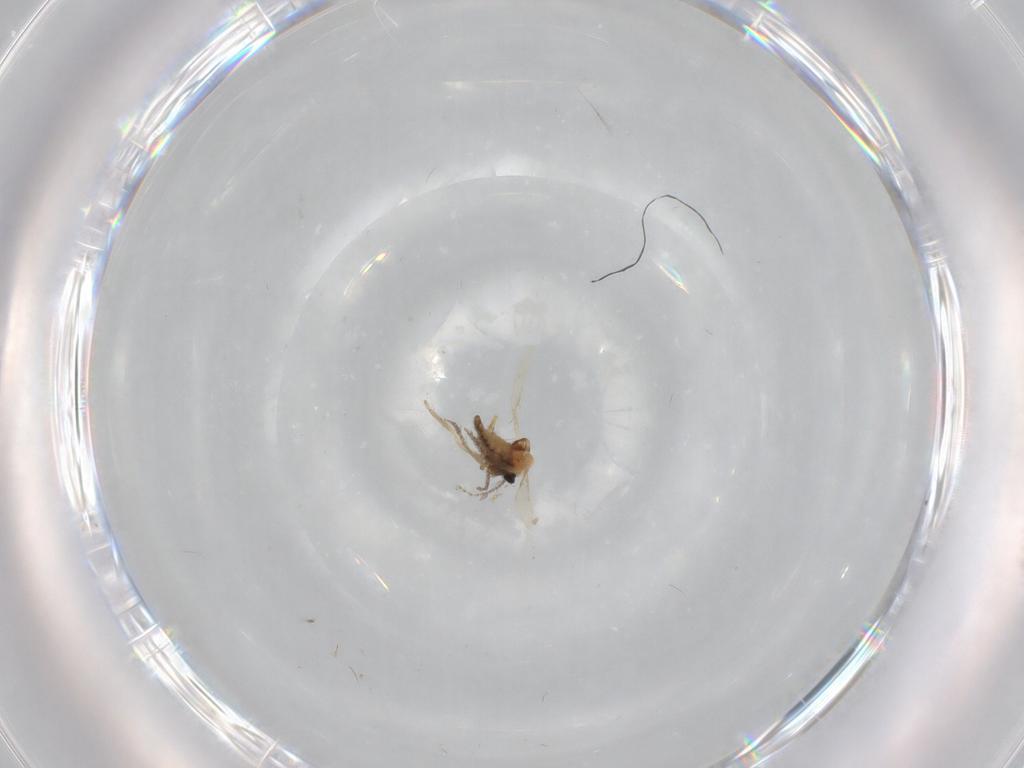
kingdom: Animalia
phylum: Arthropoda
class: Insecta
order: Diptera
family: Ceratopogonidae
